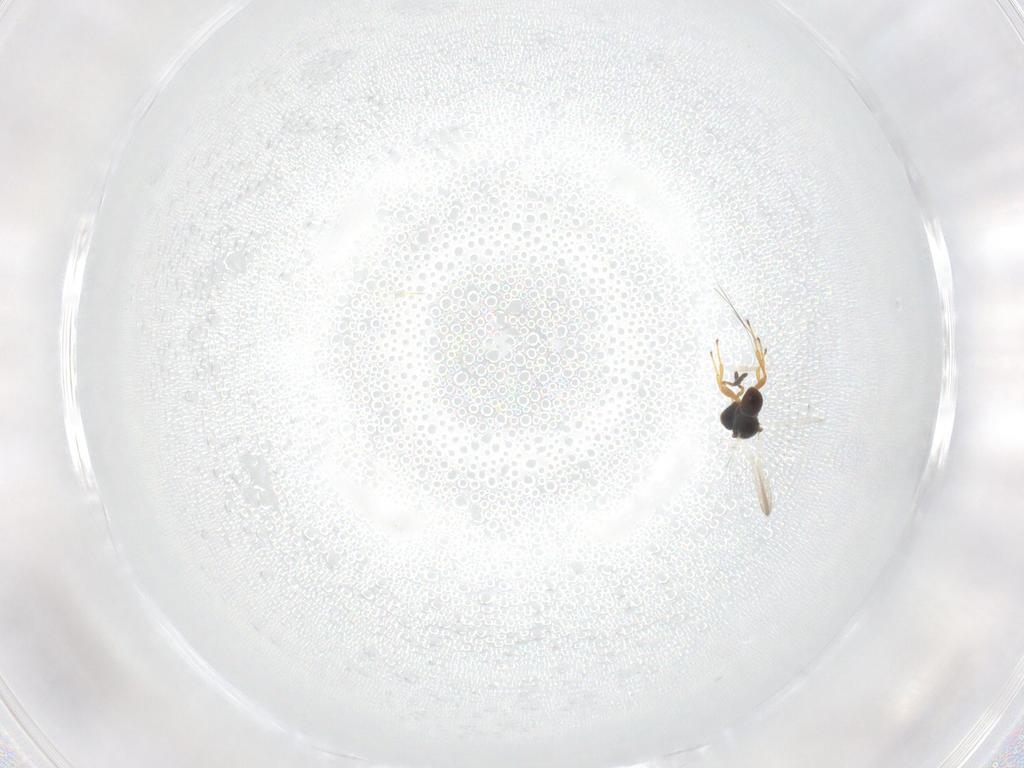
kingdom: Animalia
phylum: Arthropoda
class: Insecta
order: Hymenoptera
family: Platygastridae
